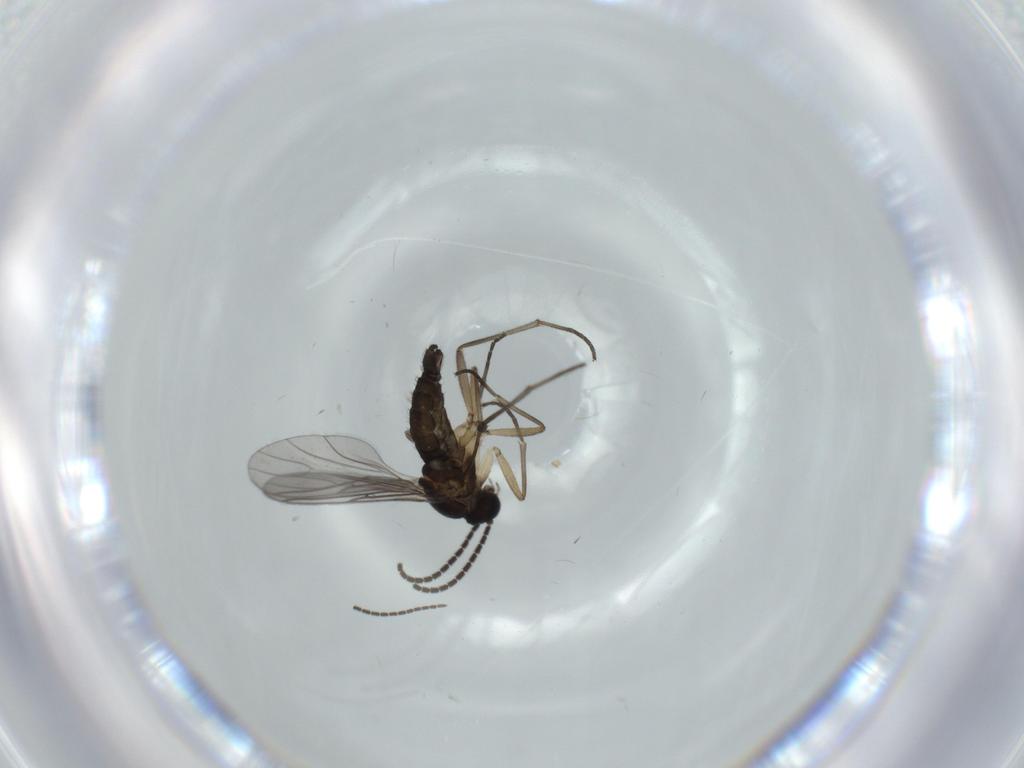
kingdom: Animalia
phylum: Arthropoda
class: Insecta
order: Diptera
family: Sciaridae
